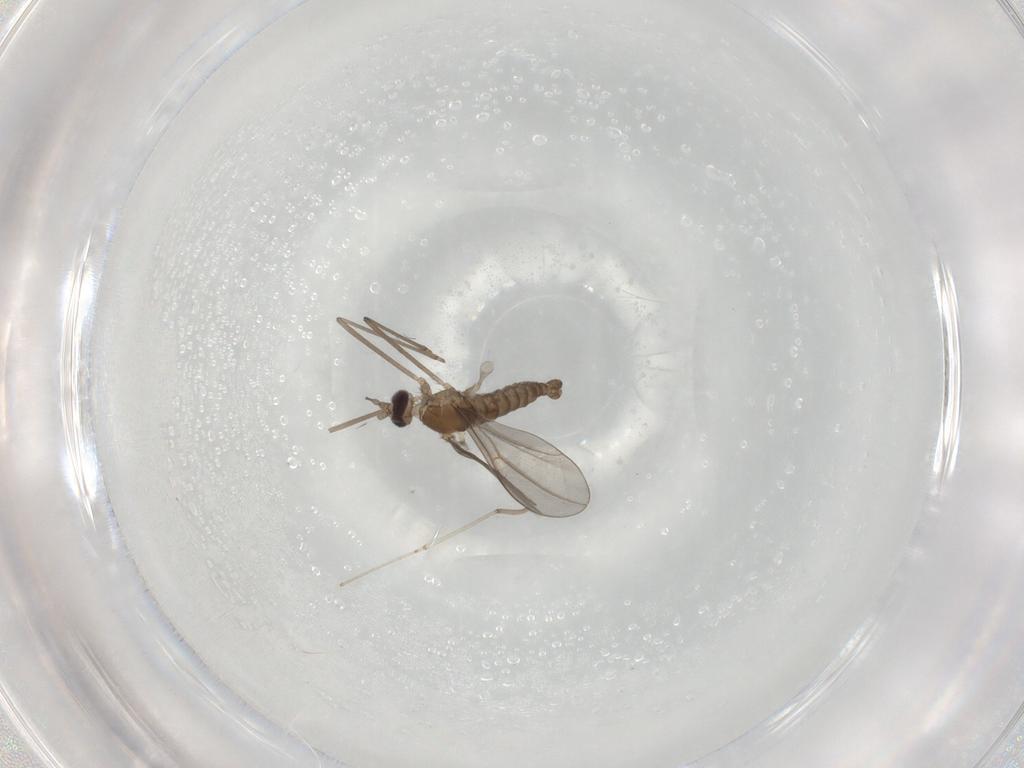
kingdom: Animalia
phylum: Arthropoda
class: Insecta
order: Diptera
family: Cecidomyiidae
